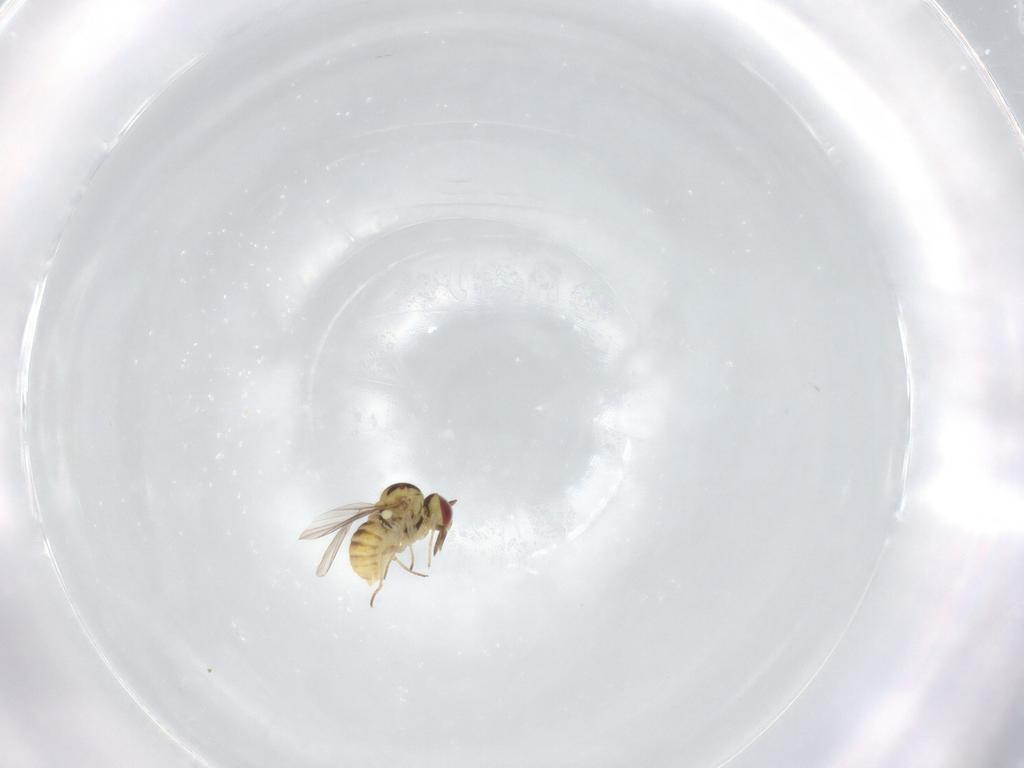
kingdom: Animalia
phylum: Arthropoda
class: Insecta
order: Diptera
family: Bombyliidae
